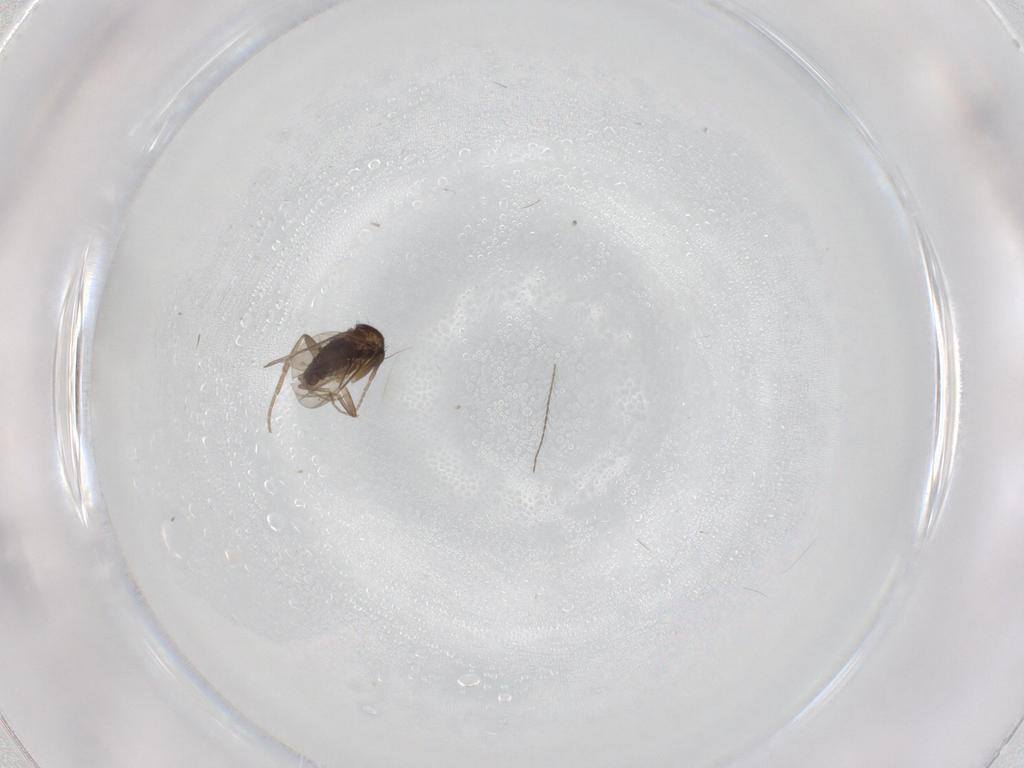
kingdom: Animalia
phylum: Arthropoda
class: Insecta
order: Diptera
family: Phoridae
